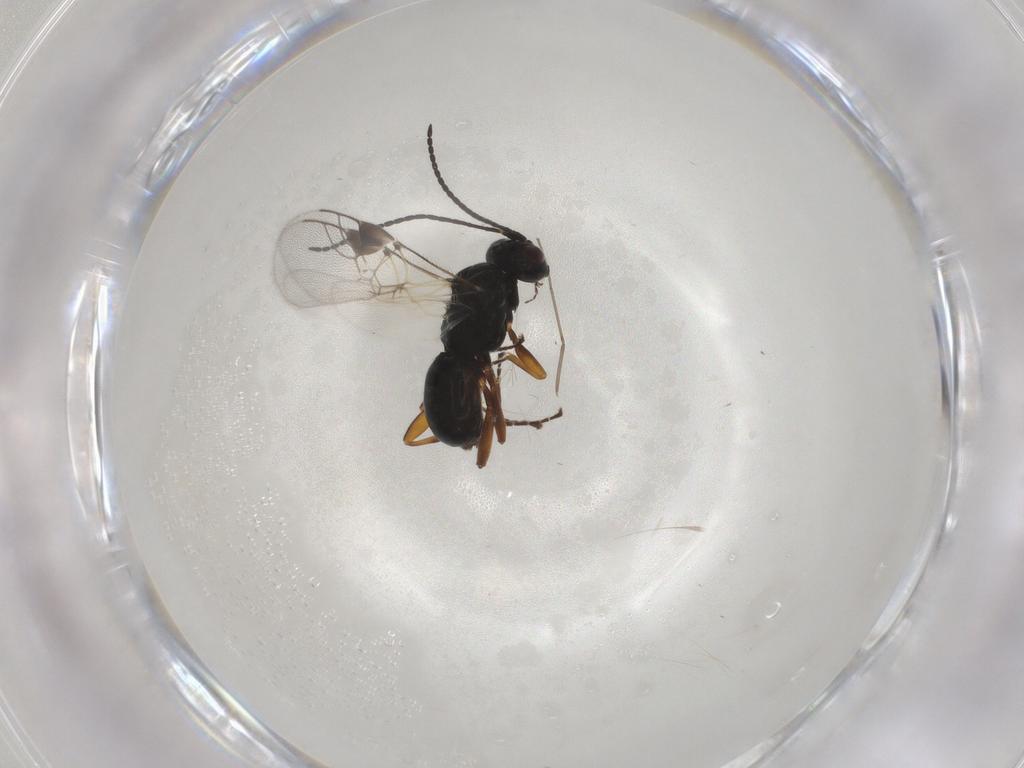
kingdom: Animalia
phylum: Arthropoda
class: Insecta
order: Hymenoptera
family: Braconidae
